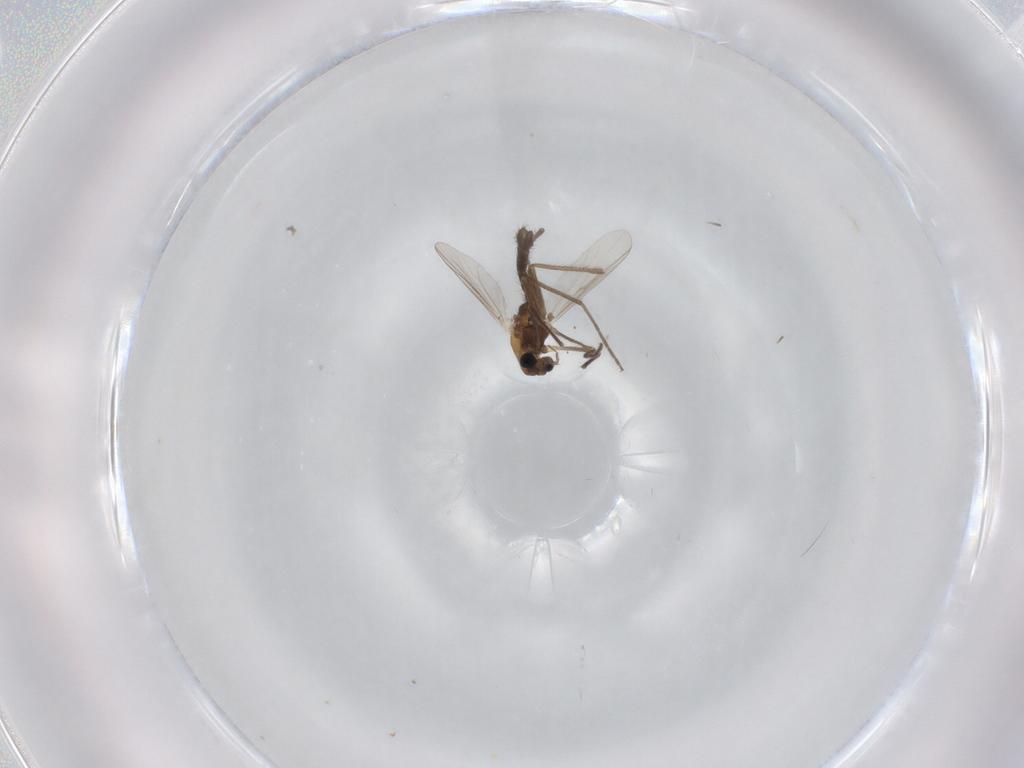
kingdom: Animalia
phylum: Arthropoda
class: Insecta
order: Diptera
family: Chironomidae
